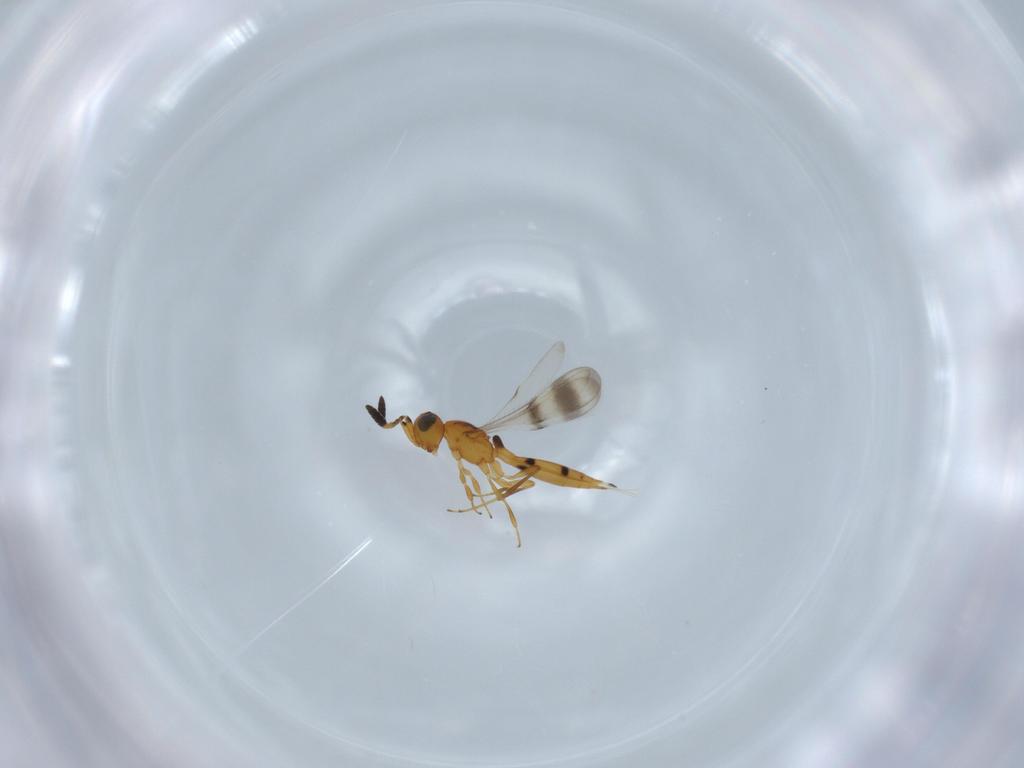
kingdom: Animalia
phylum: Arthropoda
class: Insecta
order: Hymenoptera
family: Scelionidae
